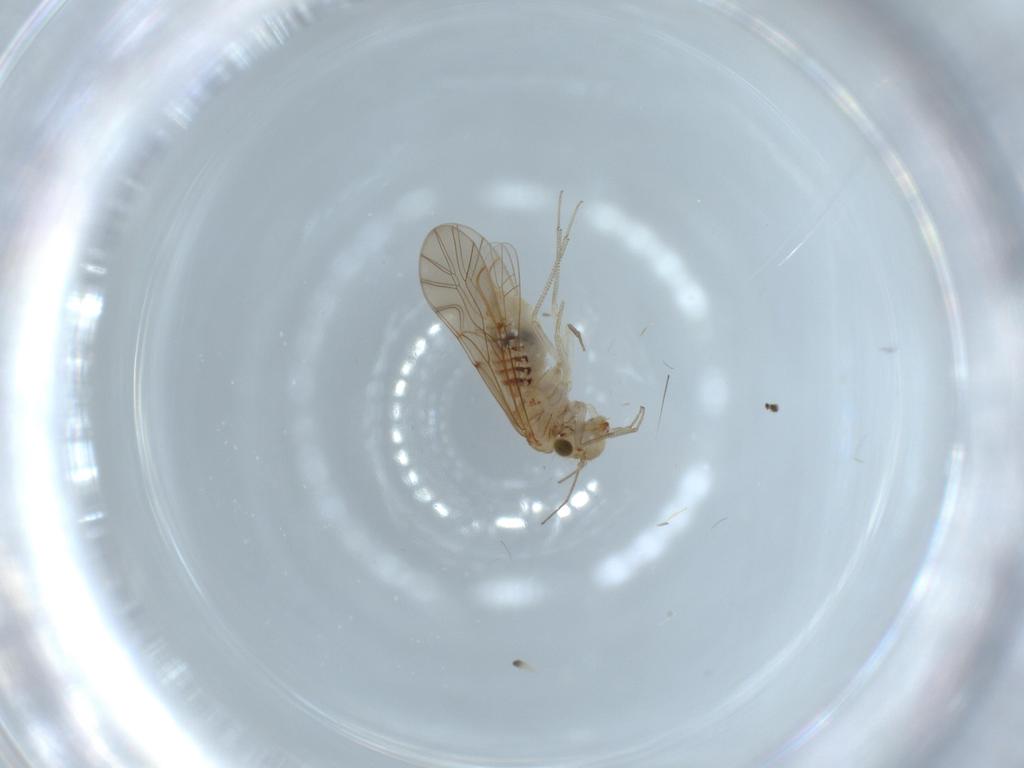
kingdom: Animalia
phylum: Arthropoda
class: Insecta
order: Psocodea
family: Lachesillidae
